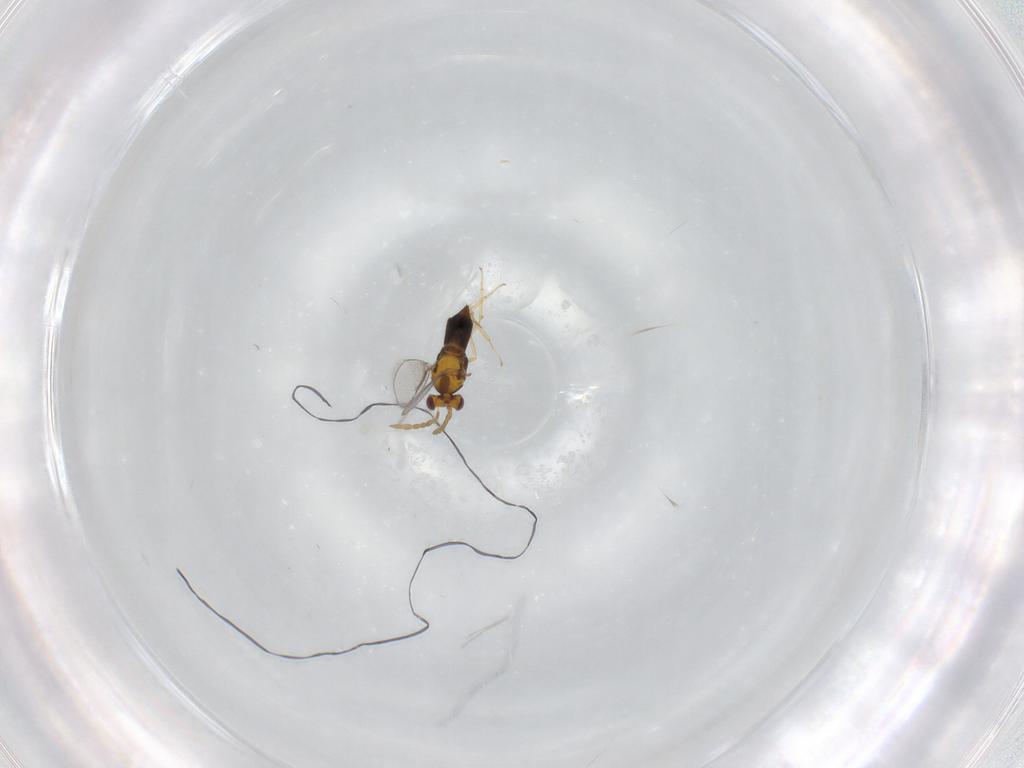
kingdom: Animalia
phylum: Arthropoda
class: Insecta
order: Hymenoptera
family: Aphelinidae
